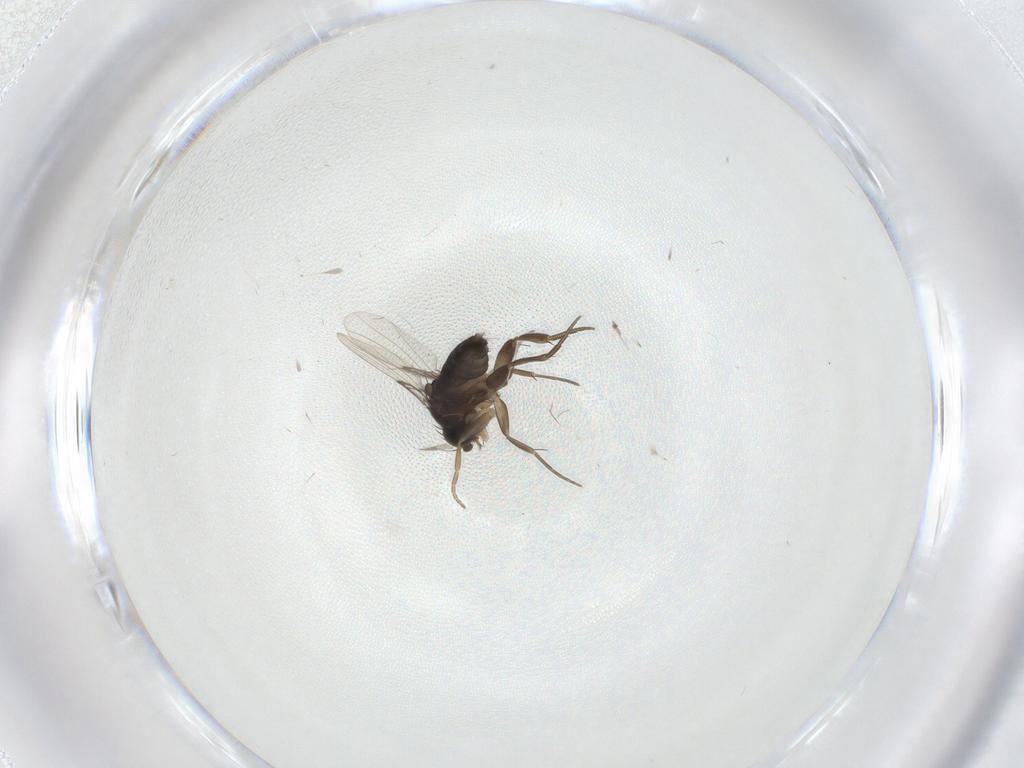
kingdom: Animalia
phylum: Arthropoda
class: Insecta
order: Diptera
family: Phoridae
